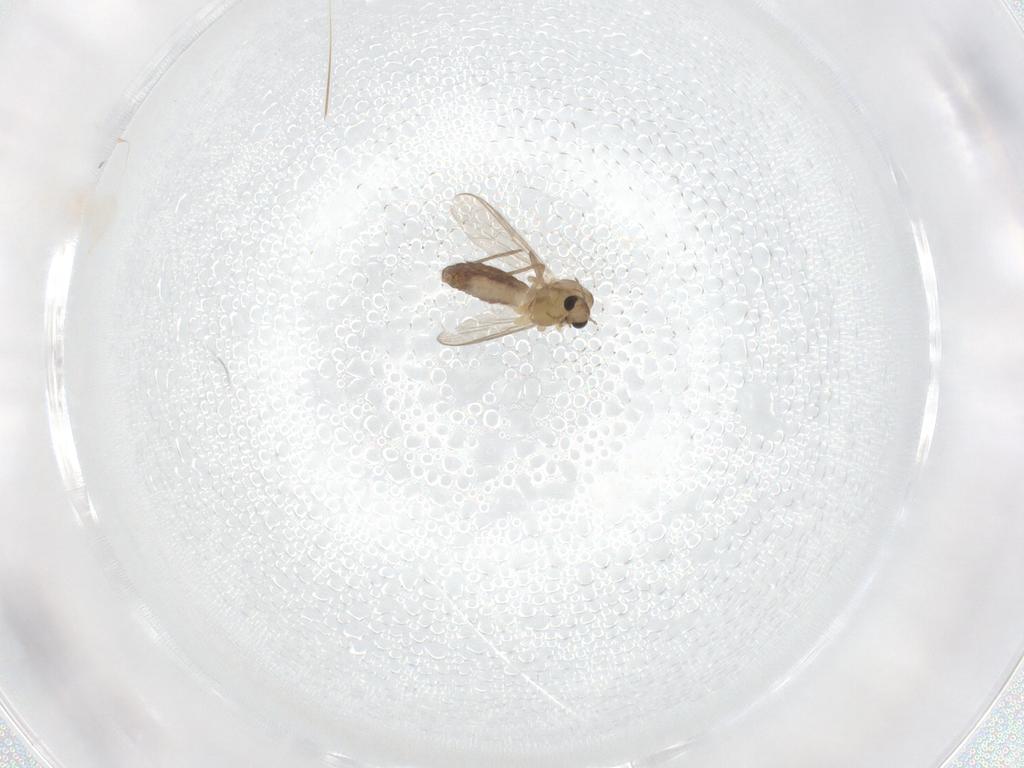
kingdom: Animalia
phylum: Arthropoda
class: Insecta
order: Diptera
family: Chironomidae
